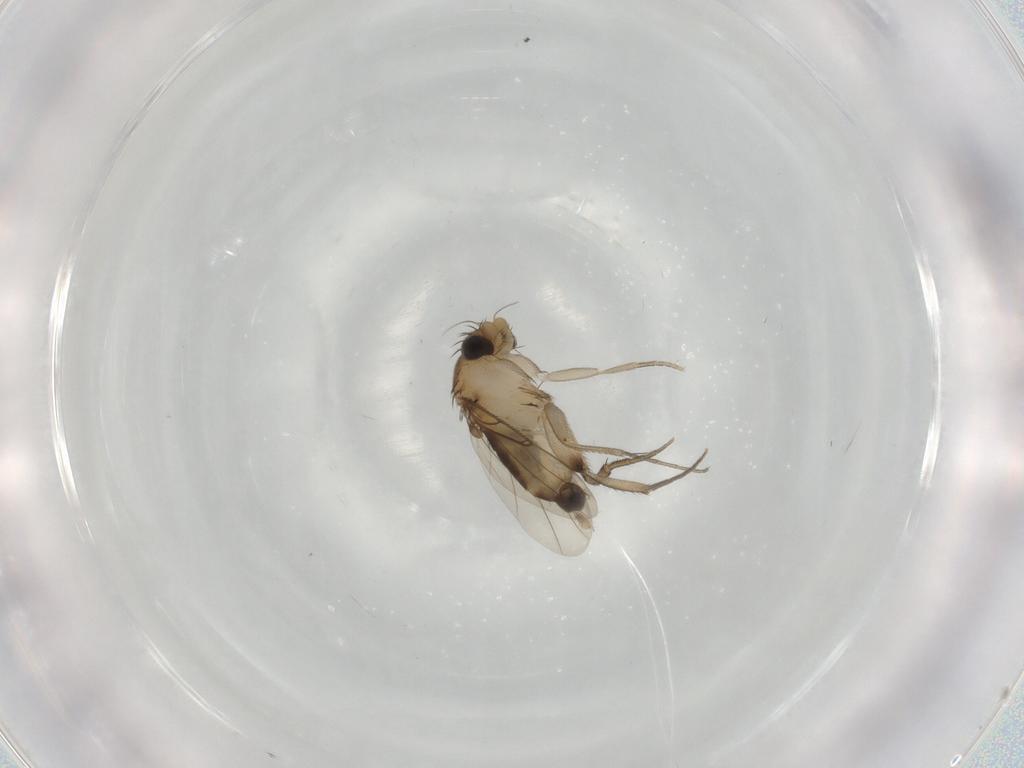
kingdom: Animalia
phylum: Arthropoda
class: Insecta
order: Diptera
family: Phoridae
